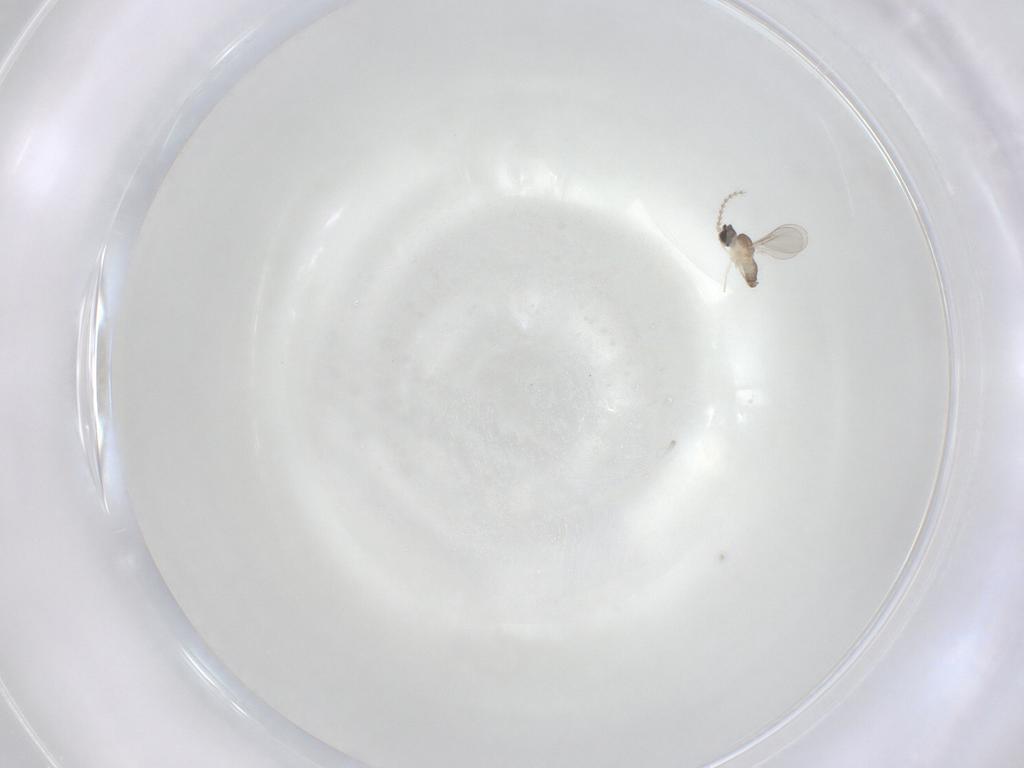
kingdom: Animalia
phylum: Arthropoda
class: Insecta
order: Diptera
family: Cecidomyiidae
